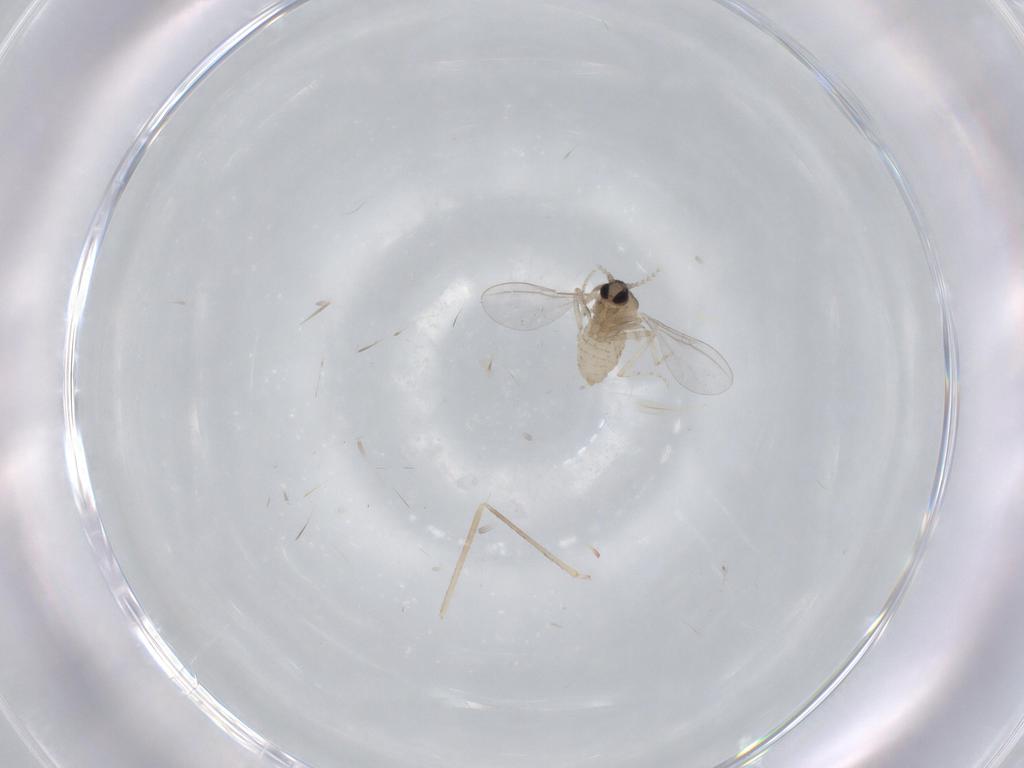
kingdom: Animalia
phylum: Arthropoda
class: Insecta
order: Diptera
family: Cecidomyiidae
